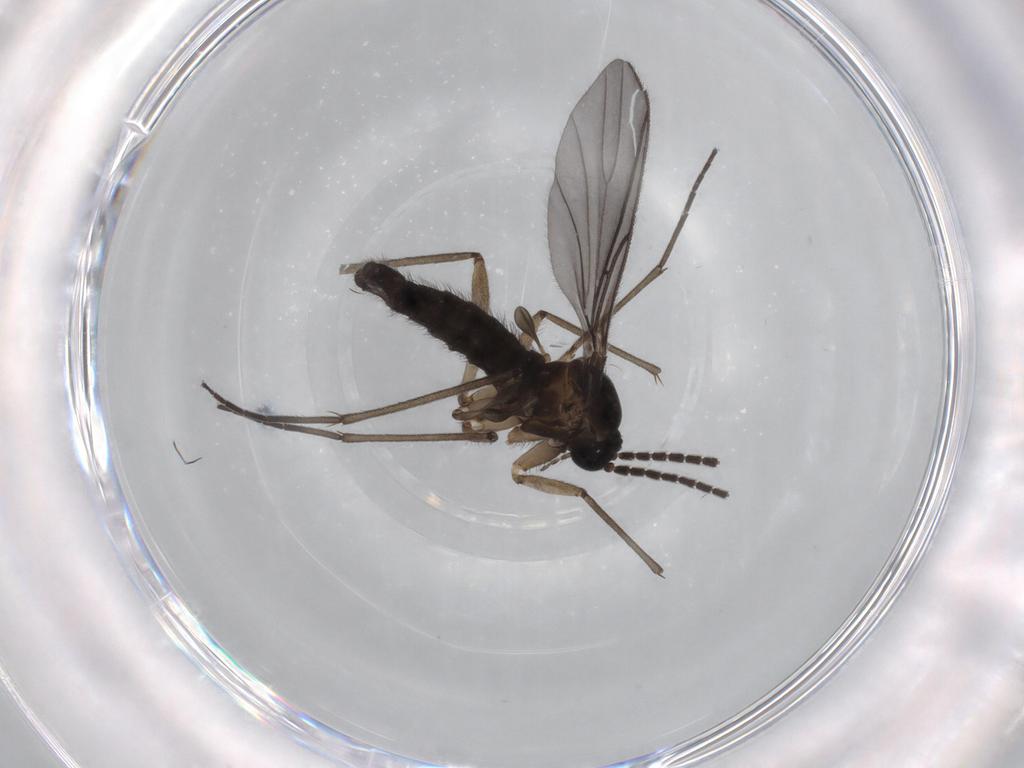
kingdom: Animalia
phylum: Arthropoda
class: Insecta
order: Diptera
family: Sciaridae
